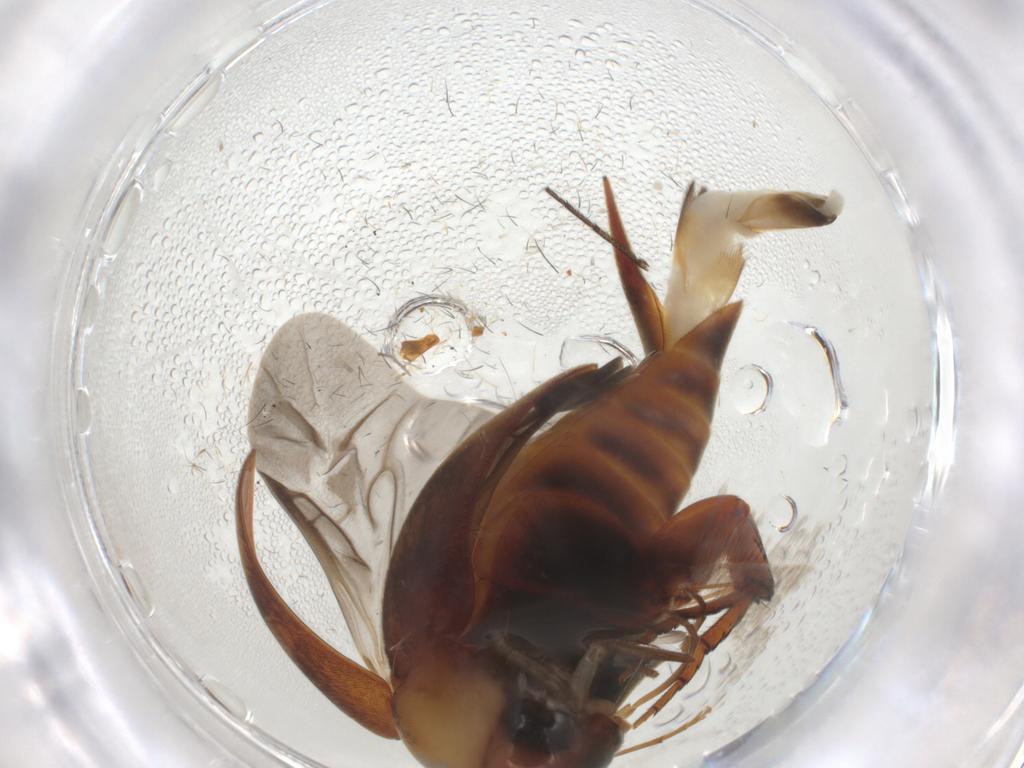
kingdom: Animalia
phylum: Arthropoda
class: Insecta
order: Coleoptera
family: Mordellidae
